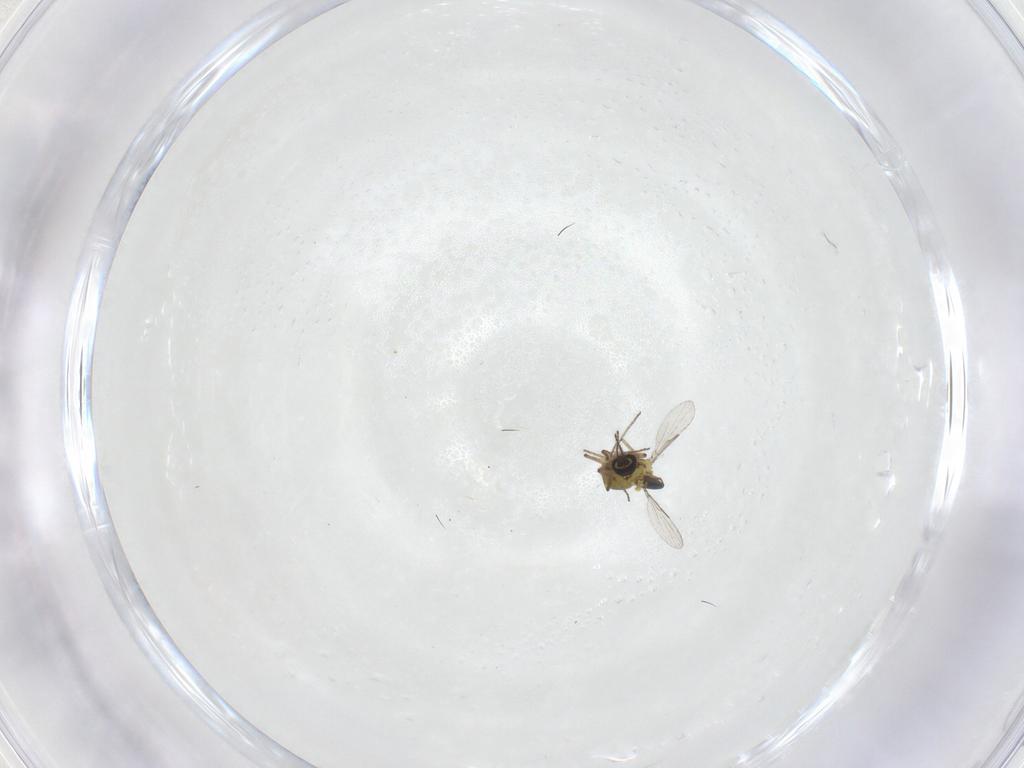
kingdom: Animalia
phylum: Arthropoda
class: Insecta
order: Diptera
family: Ceratopogonidae
